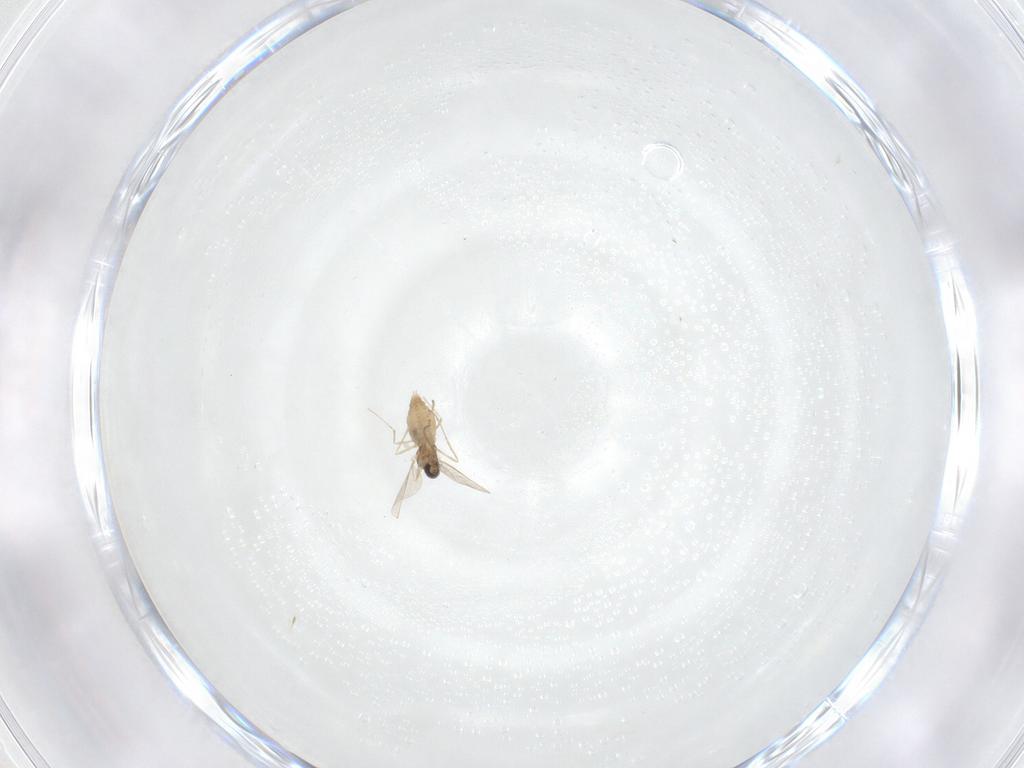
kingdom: Animalia
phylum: Arthropoda
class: Insecta
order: Diptera
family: Cecidomyiidae
